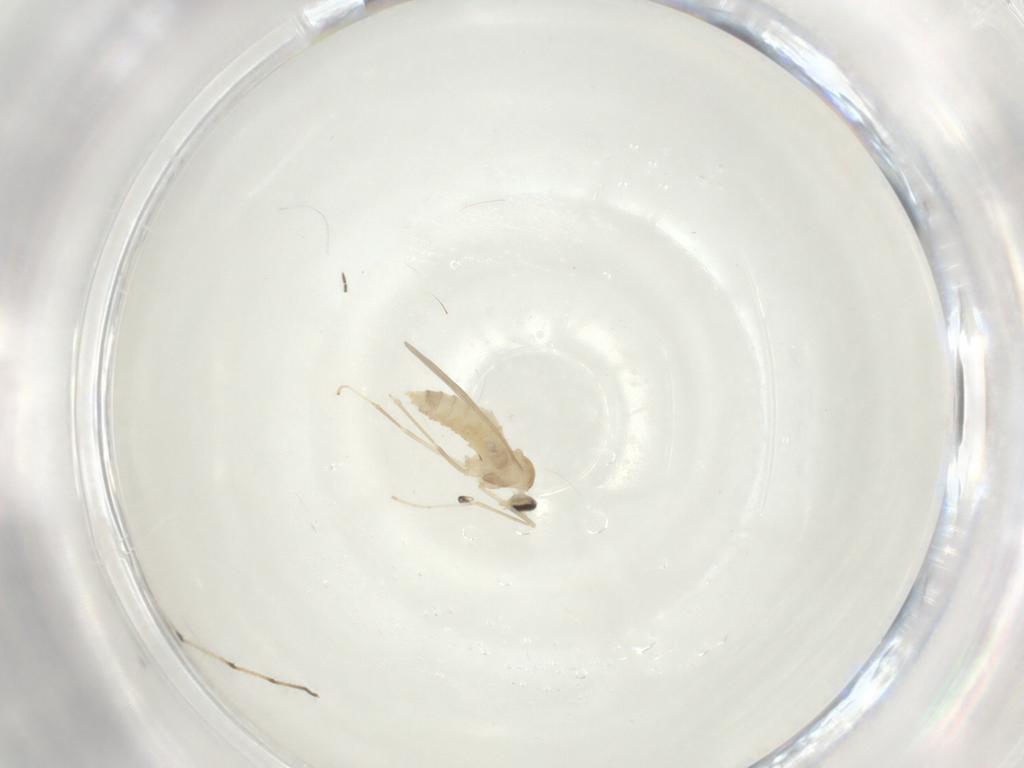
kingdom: Animalia
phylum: Arthropoda
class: Insecta
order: Diptera
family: Cecidomyiidae
